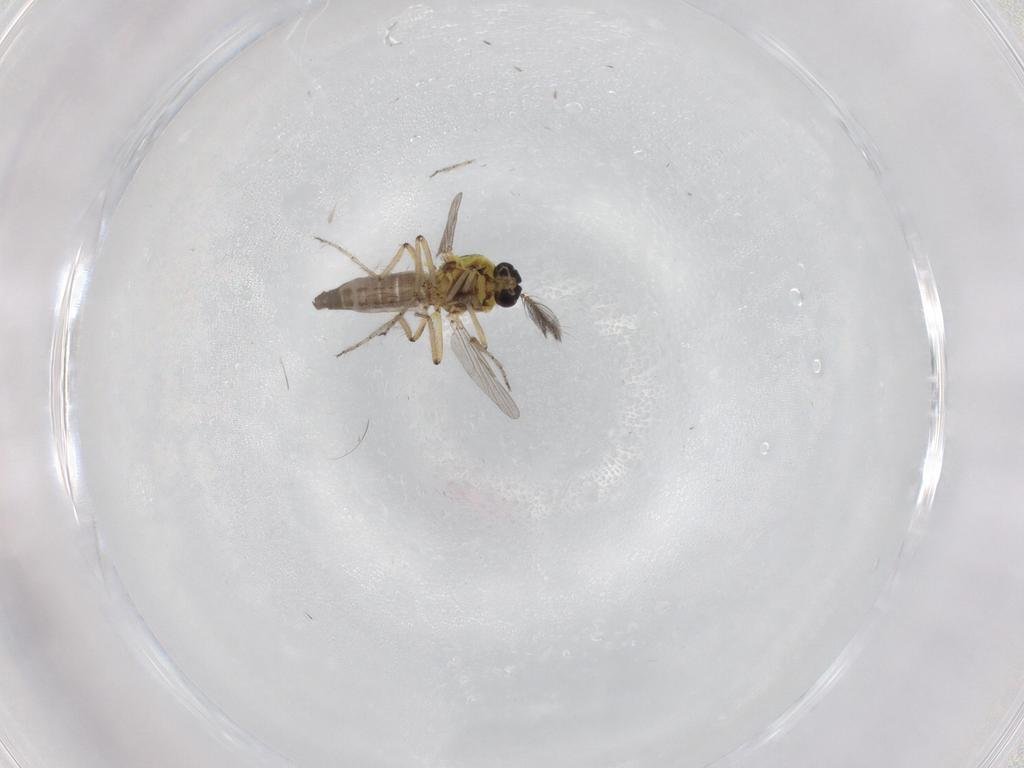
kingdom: Animalia
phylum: Arthropoda
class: Insecta
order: Diptera
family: Ceratopogonidae
